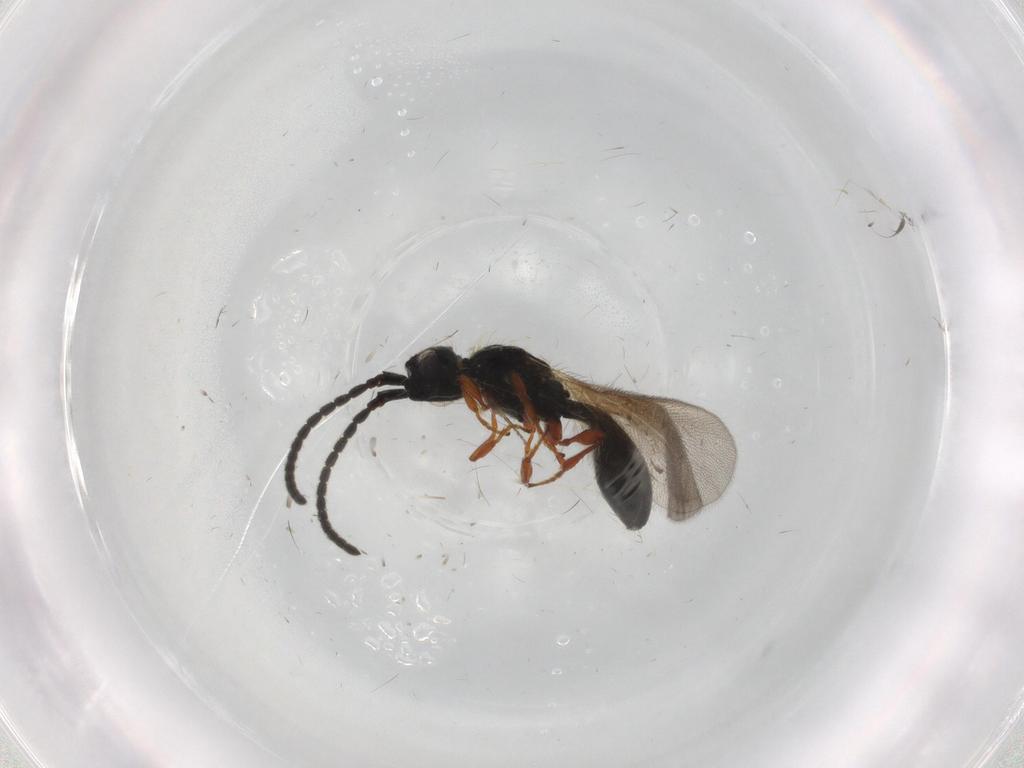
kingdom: Animalia
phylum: Arthropoda
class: Insecta
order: Hymenoptera
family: Diapriidae
